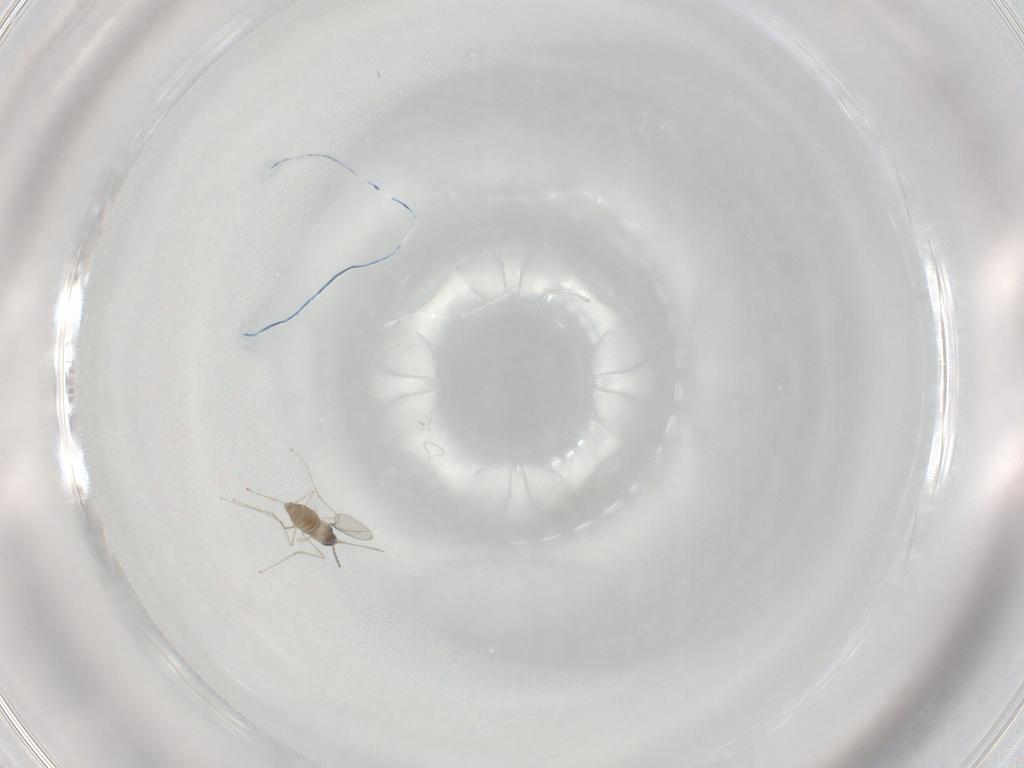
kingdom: Animalia
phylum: Arthropoda
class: Insecta
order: Diptera
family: Cecidomyiidae
